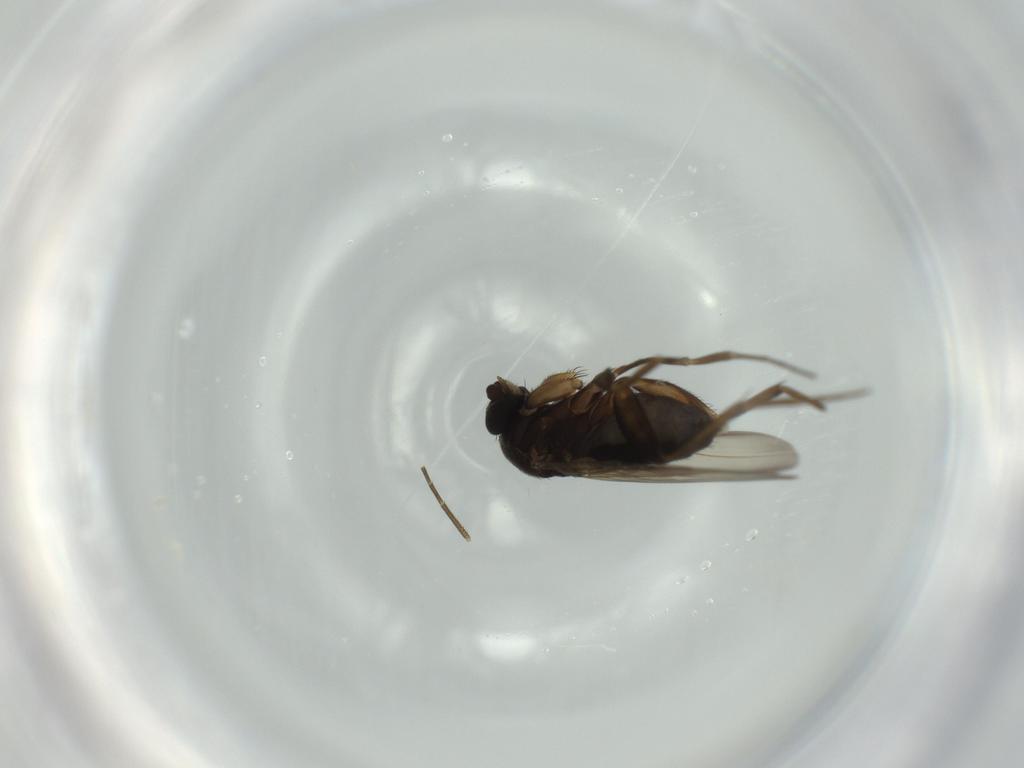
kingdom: Animalia
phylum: Arthropoda
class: Insecta
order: Diptera
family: Phoridae
